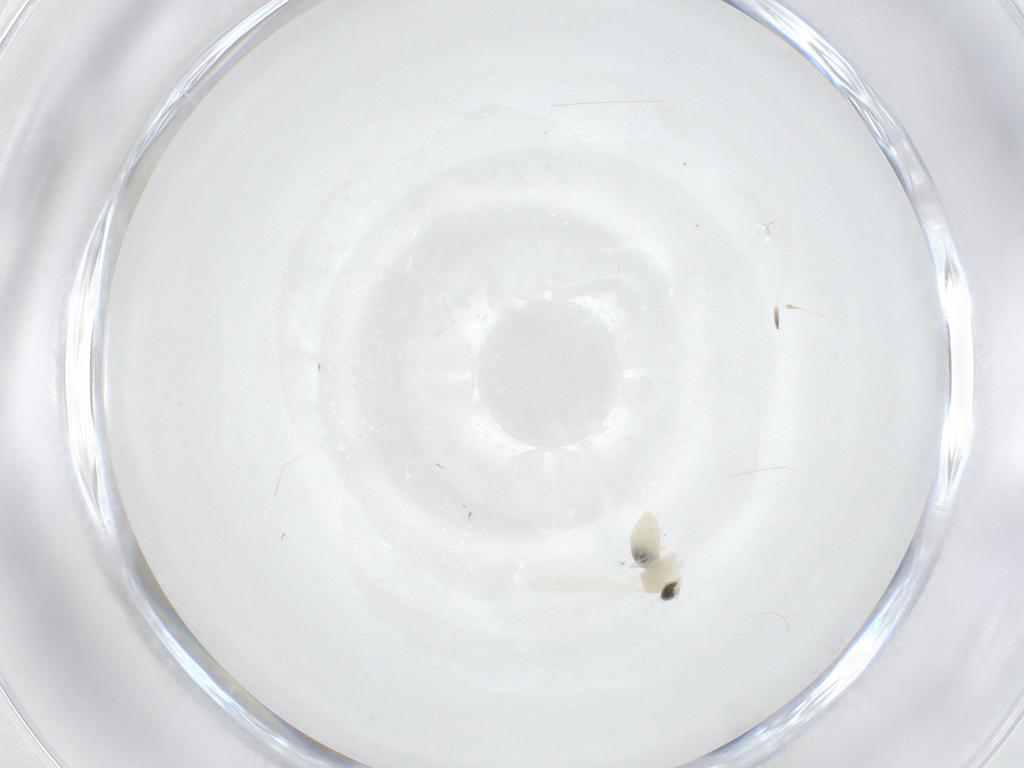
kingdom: Animalia
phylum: Arthropoda
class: Insecta
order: Diptera
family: Cecidomyiidae
